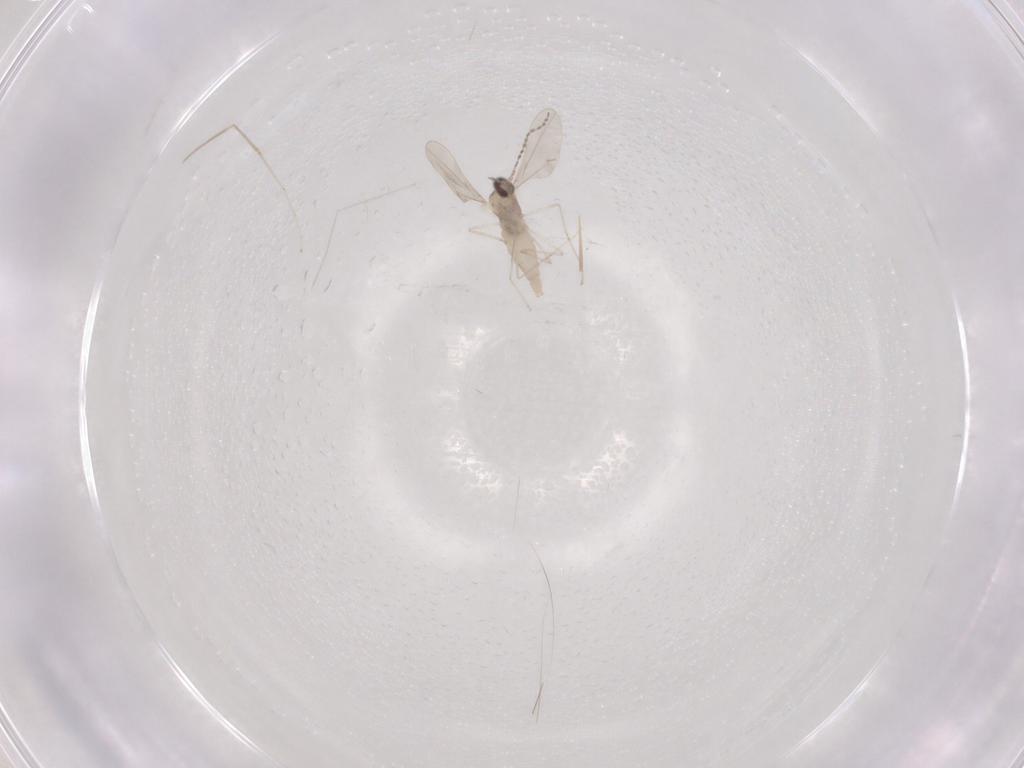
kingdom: Animalia
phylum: Arthropoda
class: Insecta
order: Diptera
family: Cecidomyiidae
